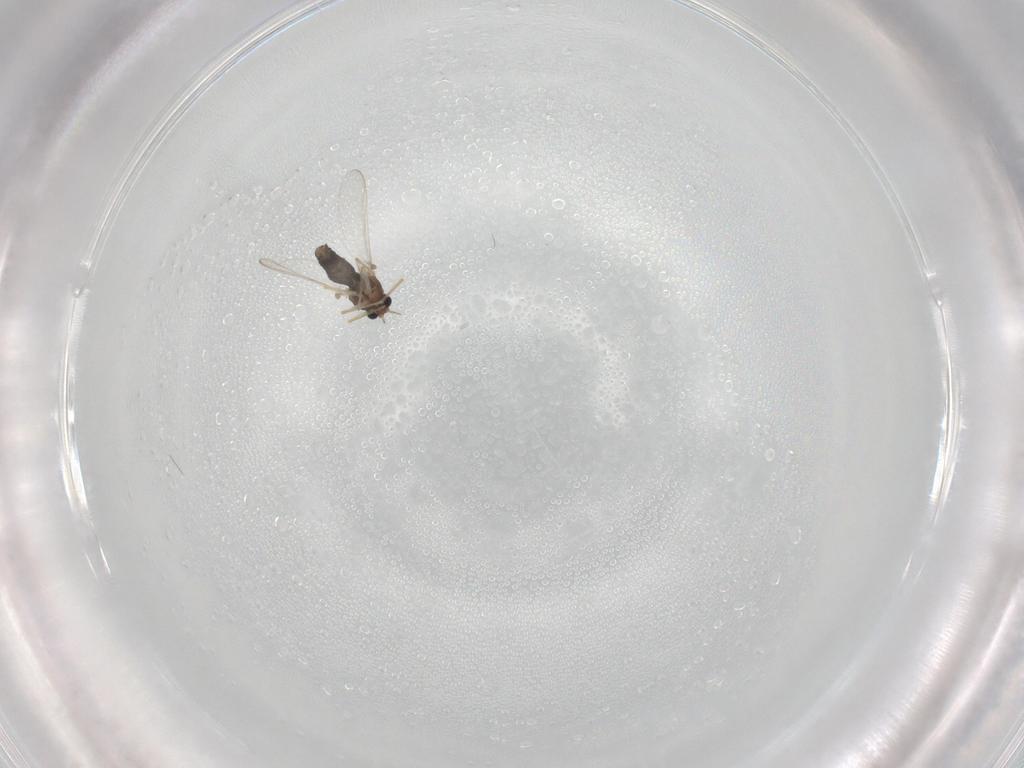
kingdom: Animalia
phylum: Arthropoda
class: Insecta
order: Diptera
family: Chironomidae
